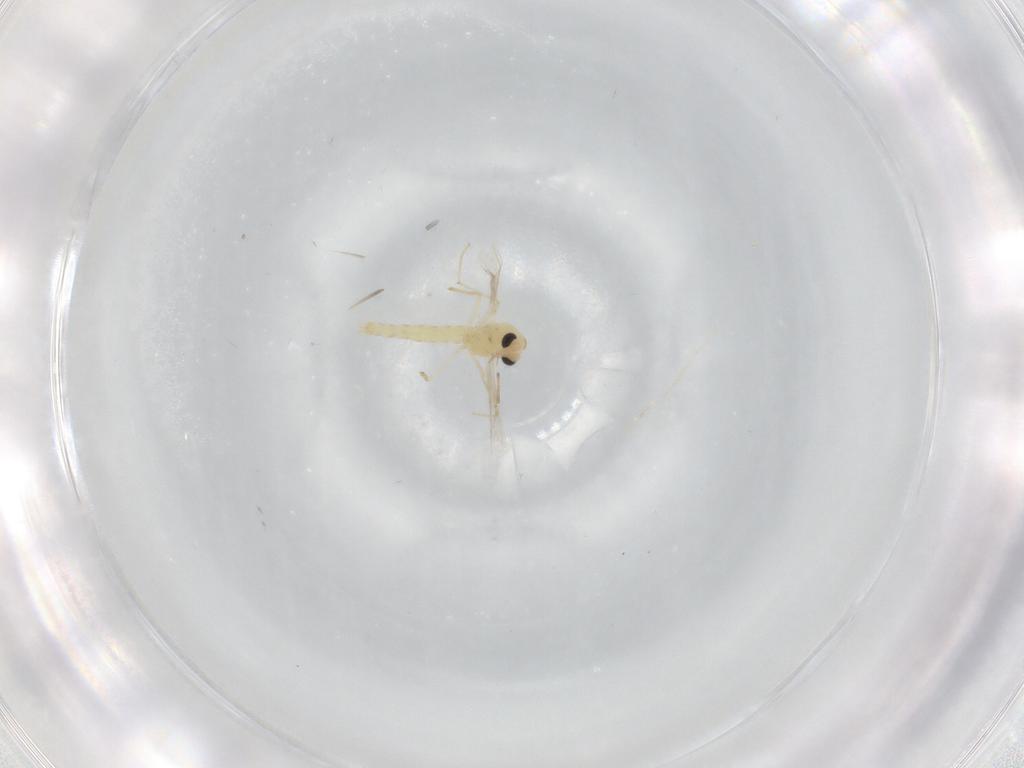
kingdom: Animalia
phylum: Arthropoda
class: Insecta
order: Diptera
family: Chironomidae
